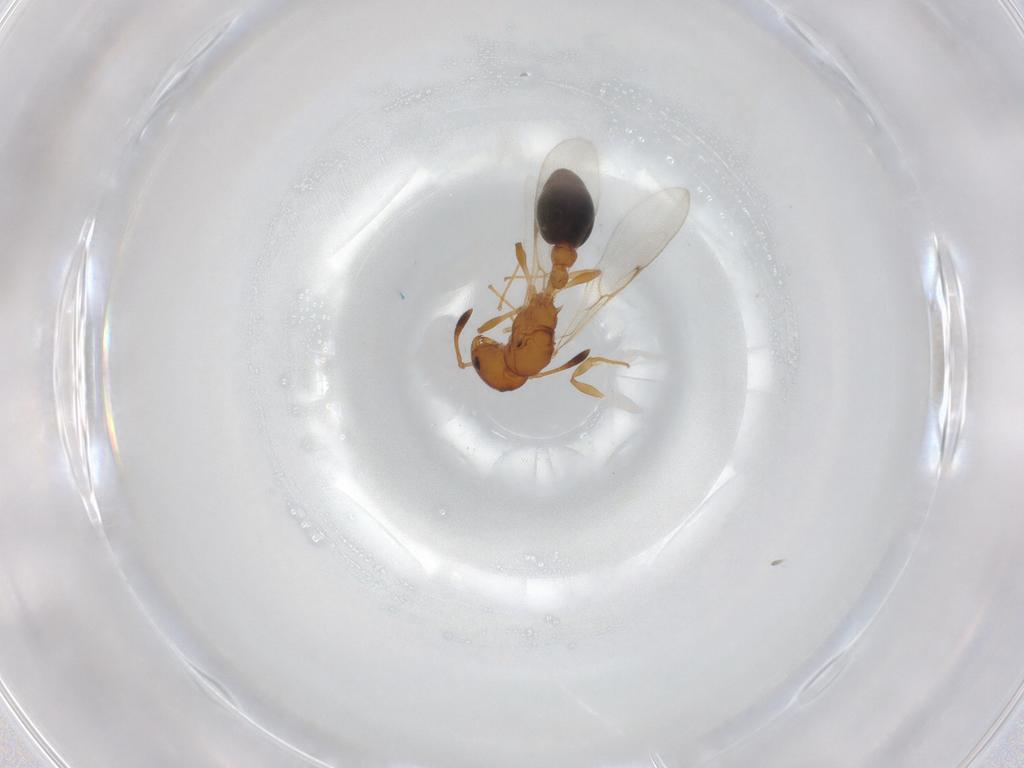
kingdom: Animalia
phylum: Arthropoda
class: Insecta
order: Hymenoptera
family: Formicidae
